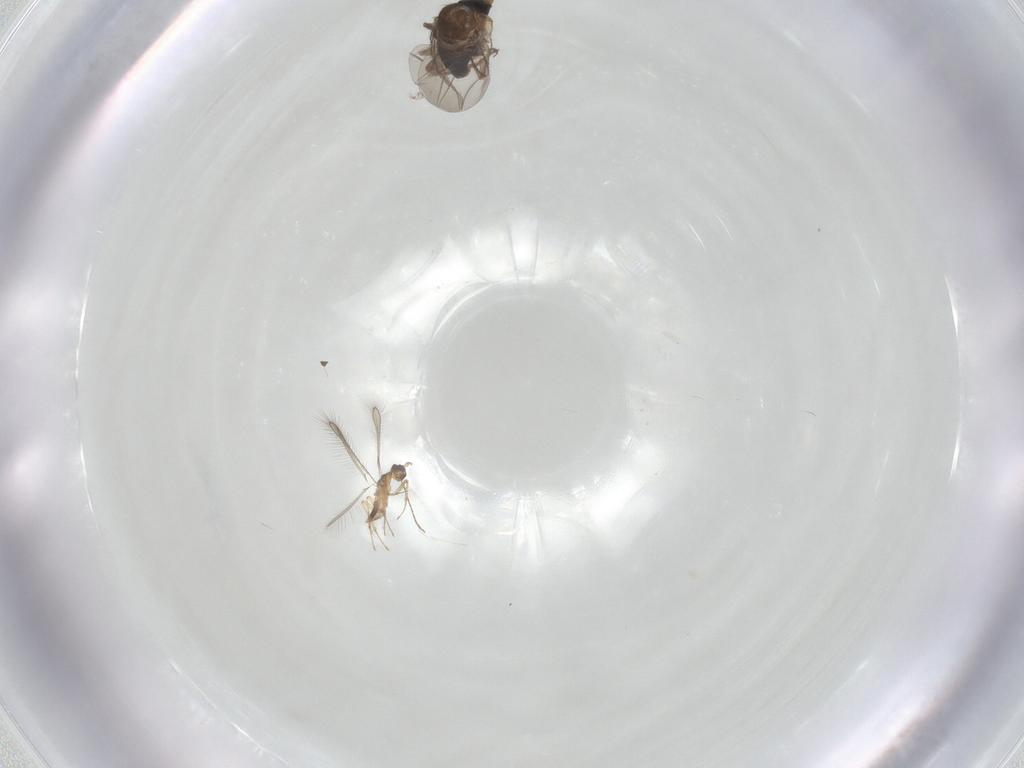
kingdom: Animalia
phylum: Arthropoda
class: Insecta
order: Diptera
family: Phoridae
